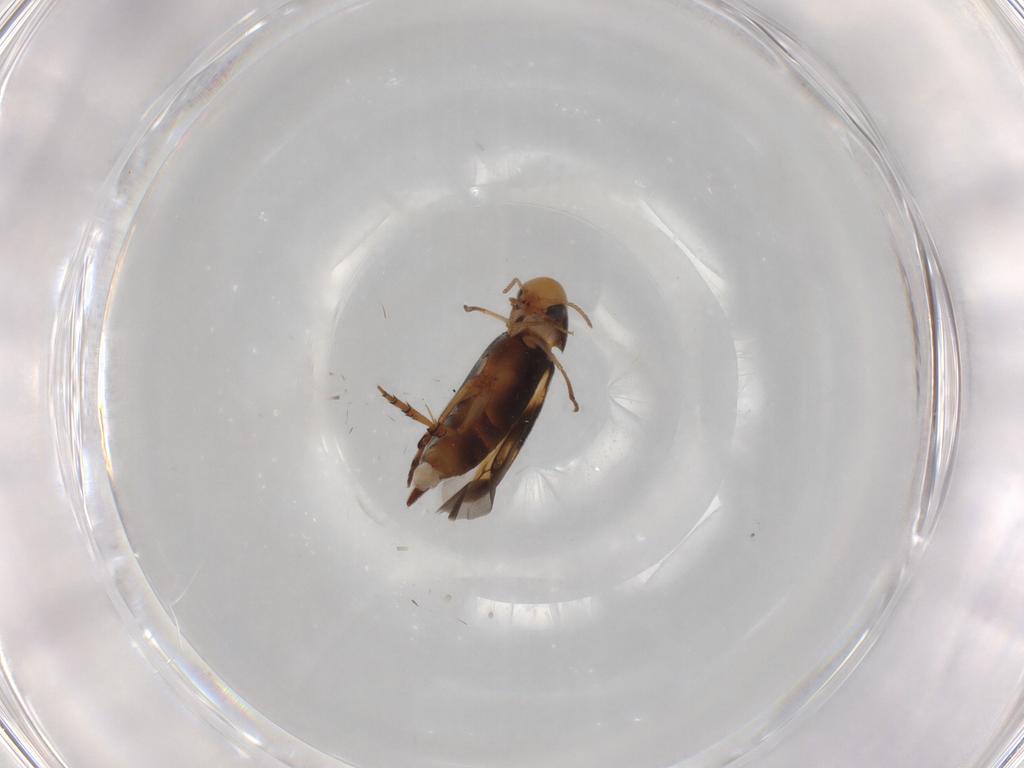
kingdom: Animalia
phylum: Arthropoda
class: Insecta
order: Coleoptera
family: Mordellidae
